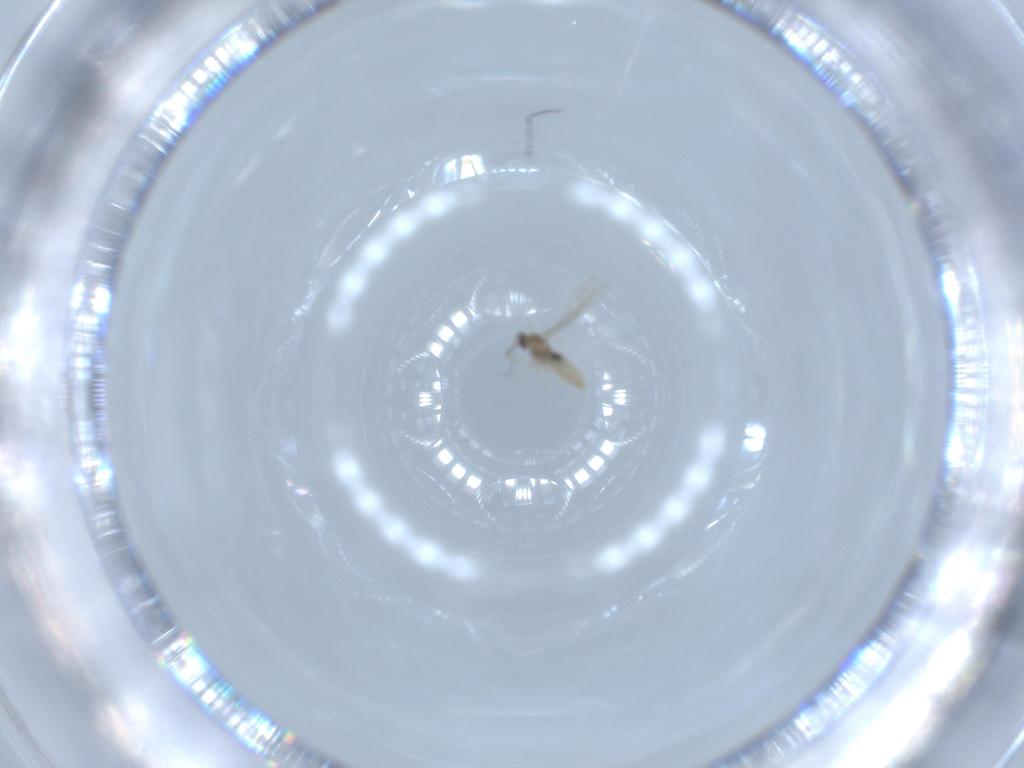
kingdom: Animalia
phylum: Arthropoda
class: Insecta
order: Diptera
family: Cecidomyiidae
